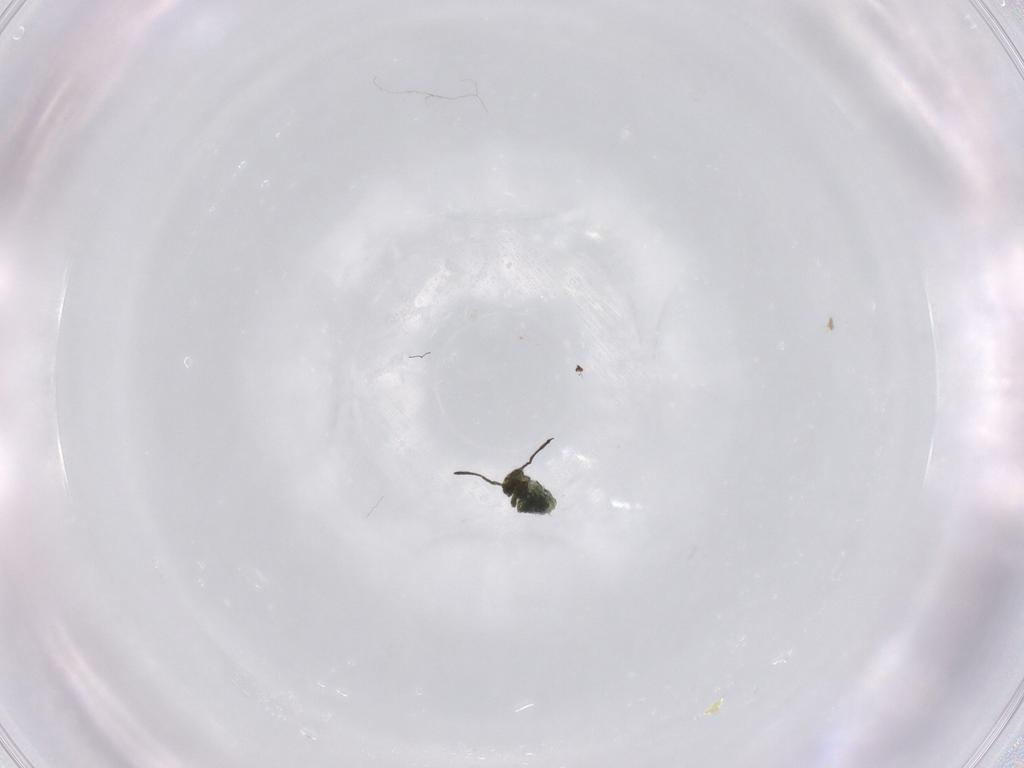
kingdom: Animalia
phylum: Arthropoda
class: Collembola
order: Symphypleona
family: Sminthuridae
